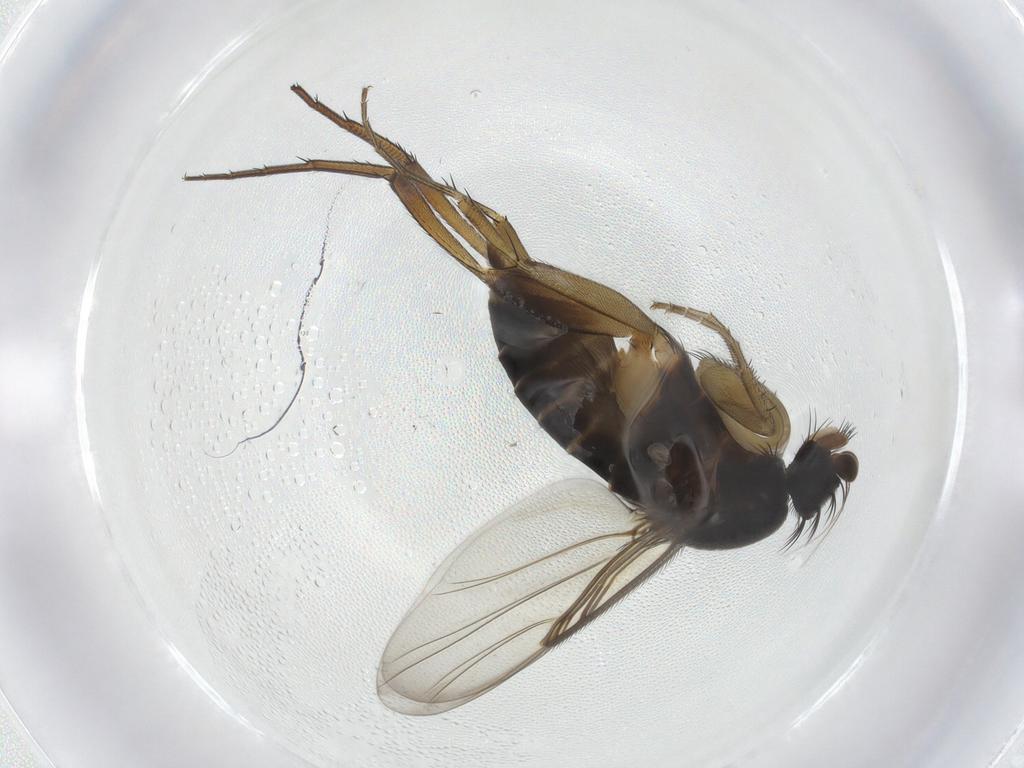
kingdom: Animalia
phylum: Arthropoda
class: Insecta
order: Diptera
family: Phoridae
